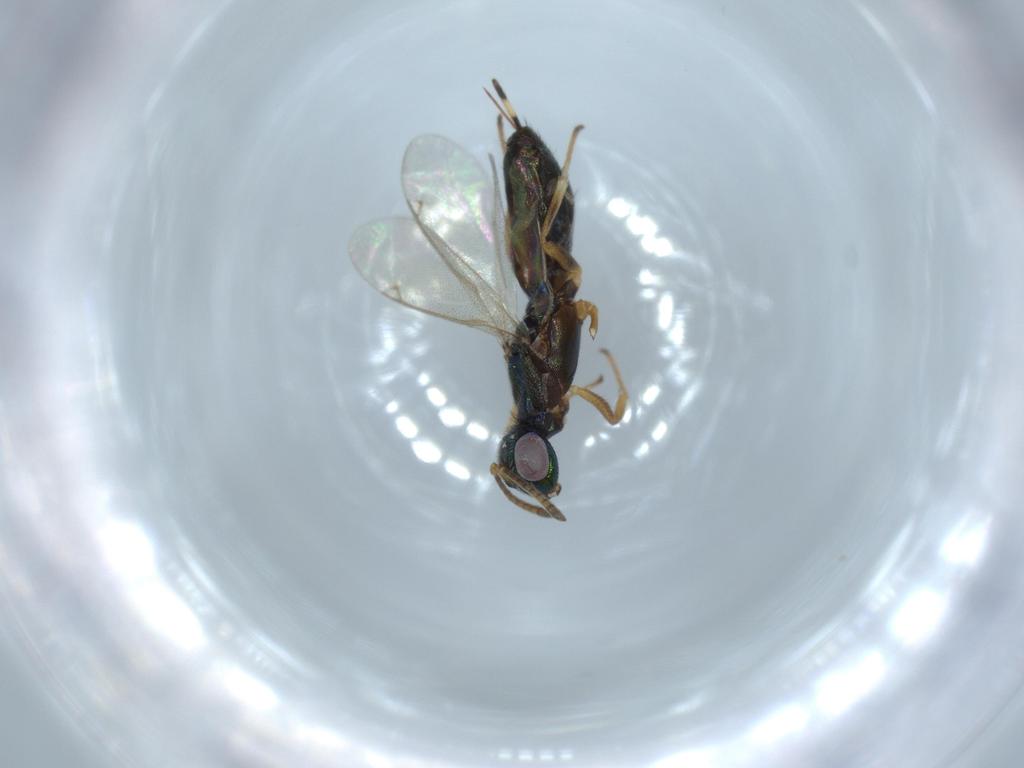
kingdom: Animalia
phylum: Arthropoda
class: Insecta
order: Hymenoptera
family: Eupelmidae
